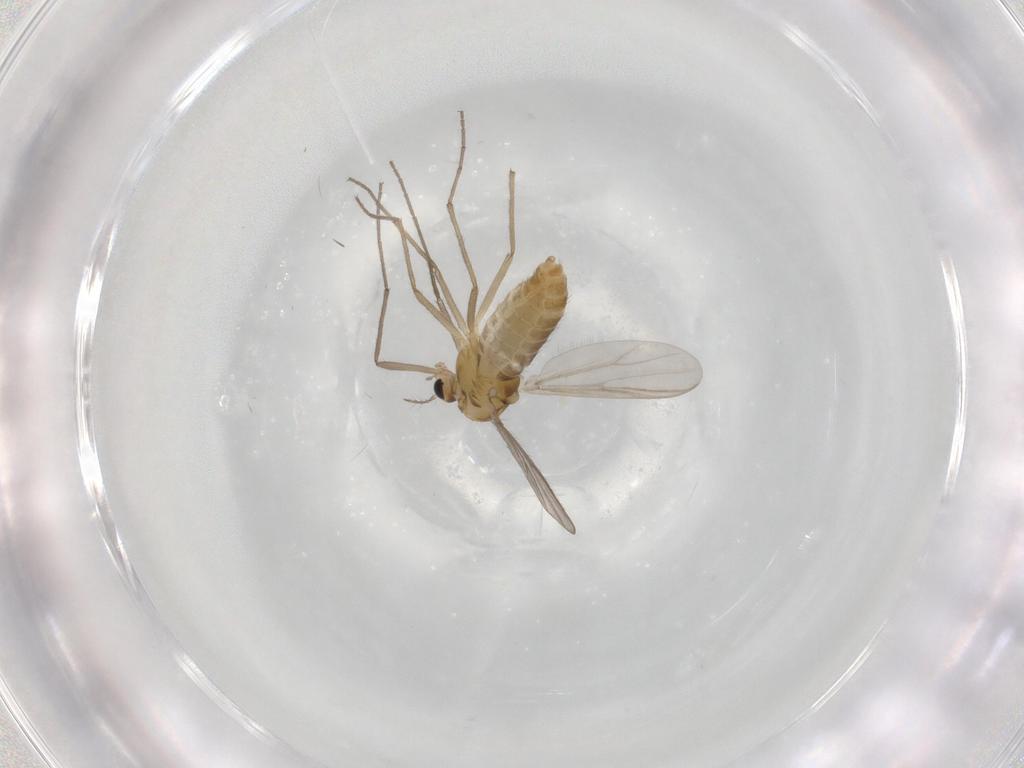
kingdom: Animalia
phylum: Arthropoda
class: Insecta
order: Diptera
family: Chironomidae
